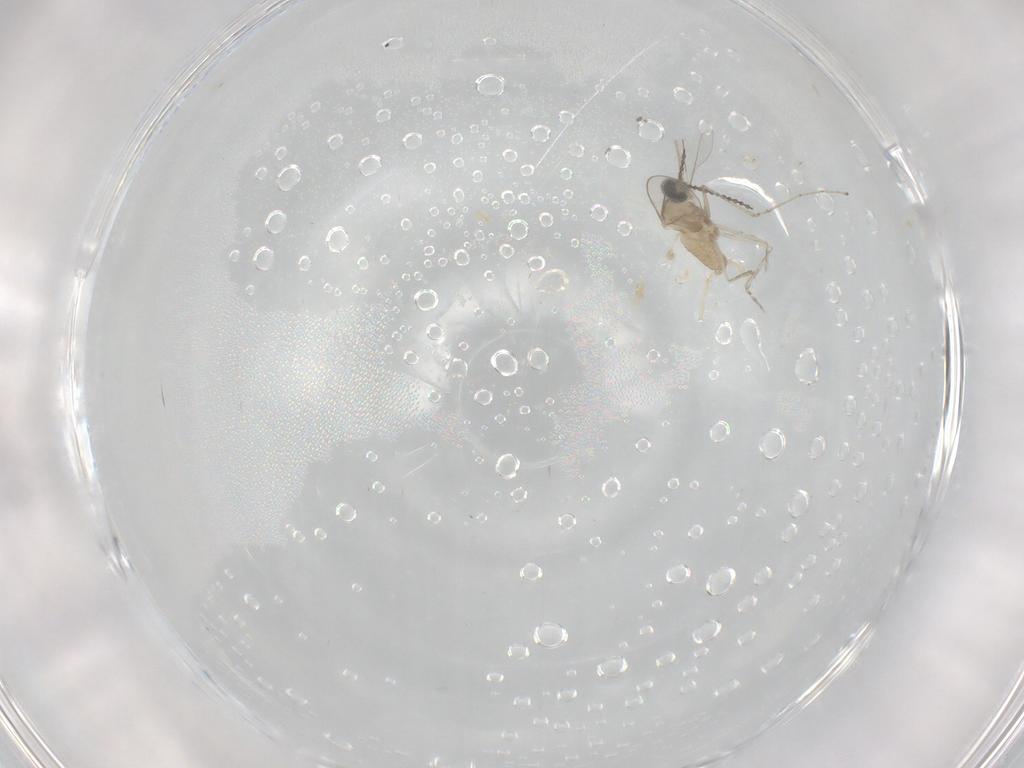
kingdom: Animalia
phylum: Arthropoda
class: Insecta
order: Diptera
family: Cecidomyiidae
